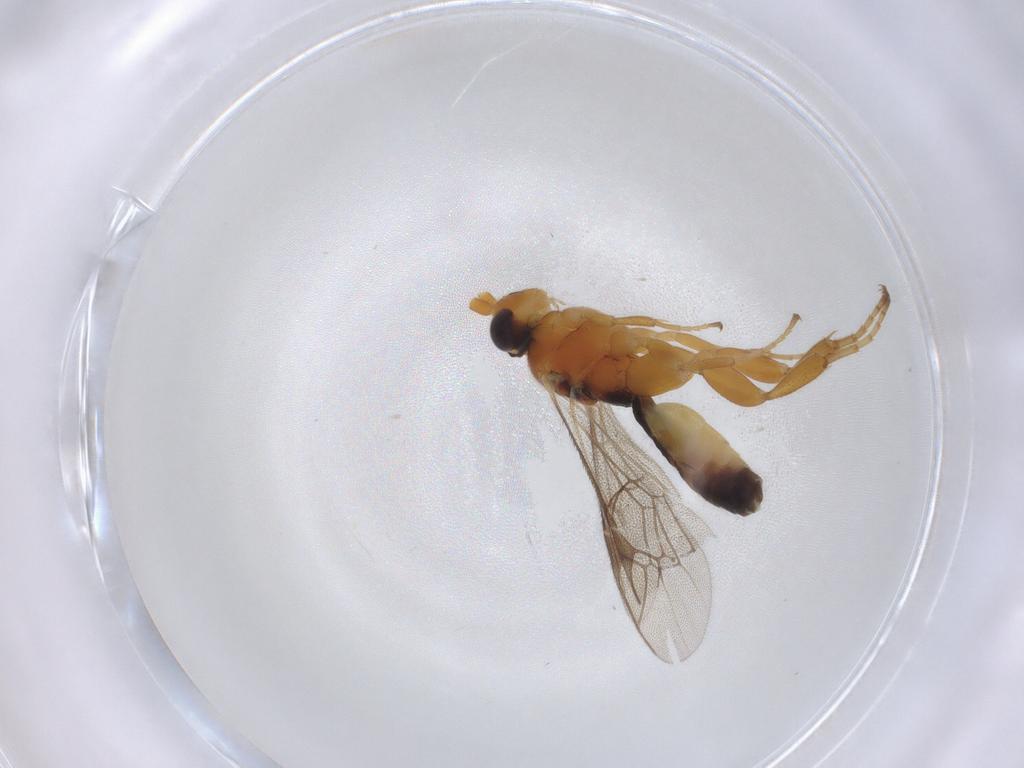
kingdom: Animalia
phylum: Arthropoda
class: Insecta
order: Hymenoptera
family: Ichneumonidae
